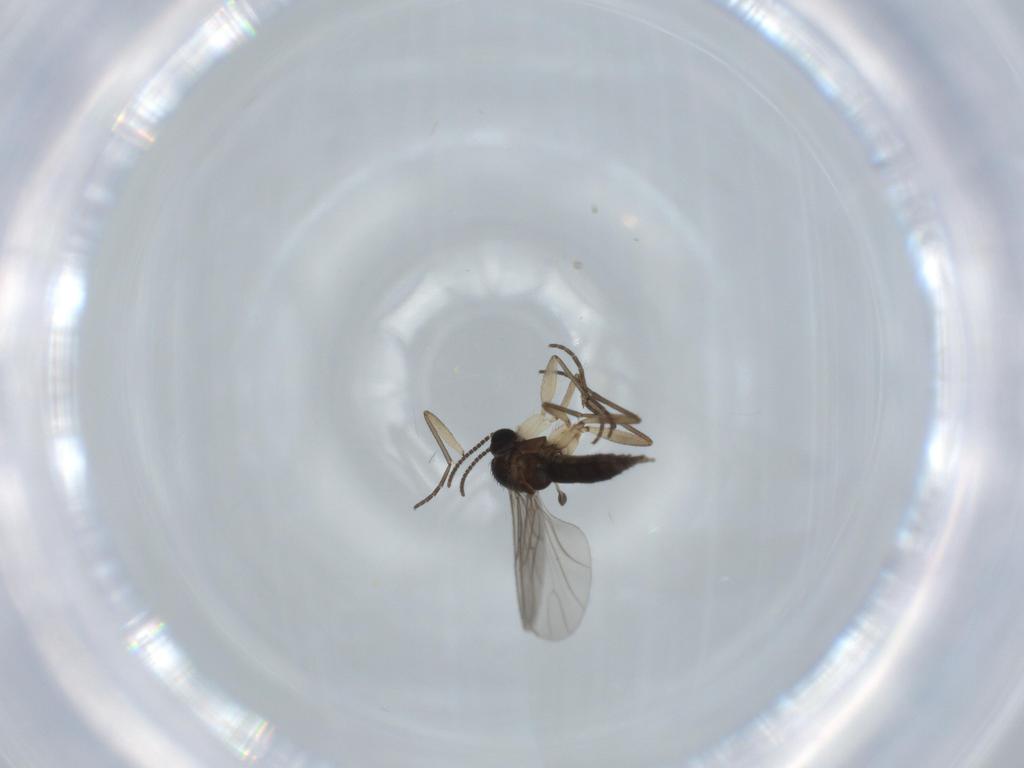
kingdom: Animalia
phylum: Arthropoda
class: Insecta
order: Diptera
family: Sciaridae
